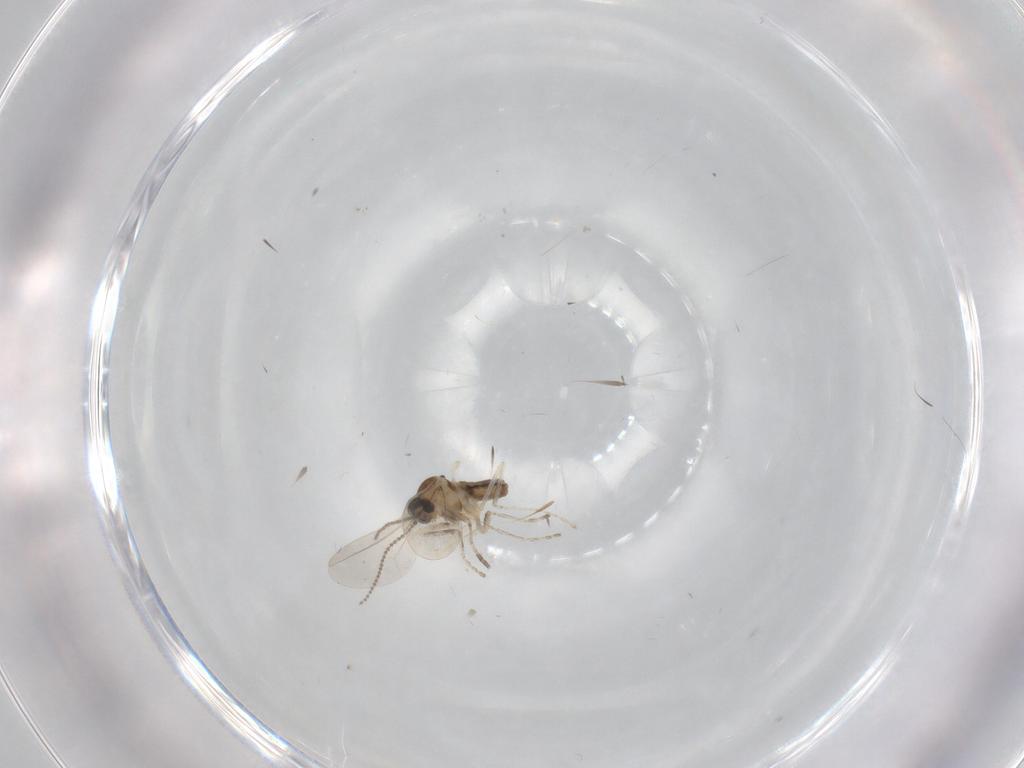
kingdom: Animalia
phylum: Arthropoda
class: Insecta
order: Diptera
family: Cecidomyiidae
